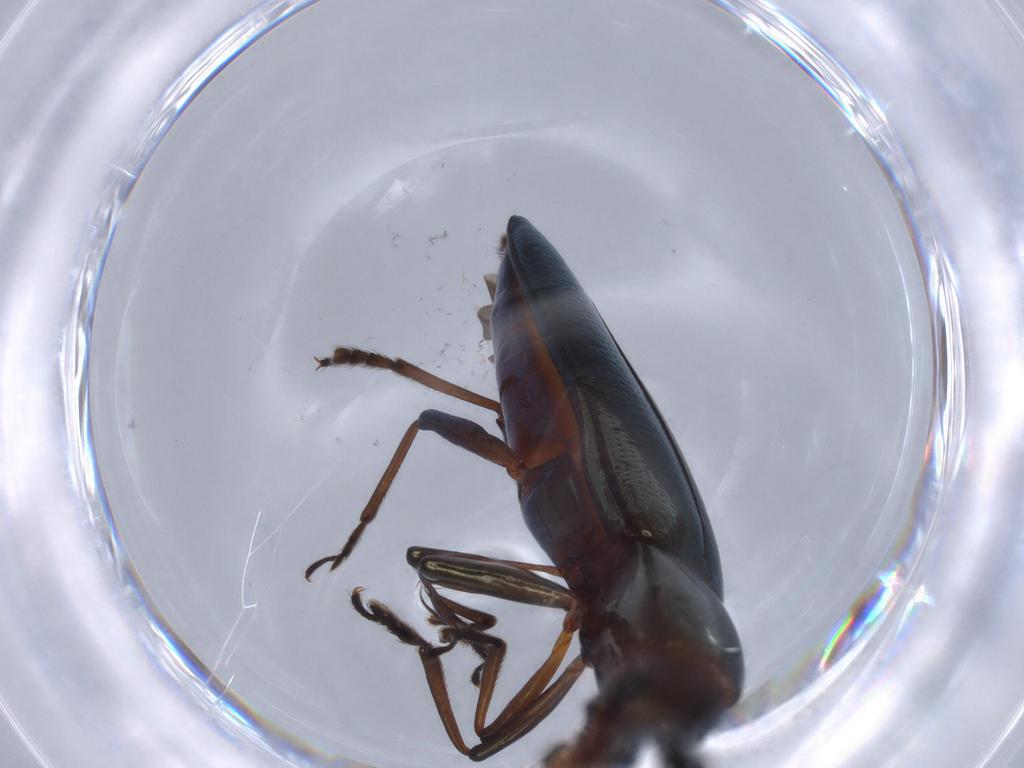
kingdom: Animalia
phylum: Arthropoda
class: Insecta
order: Coleoptera
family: Erotylidae
